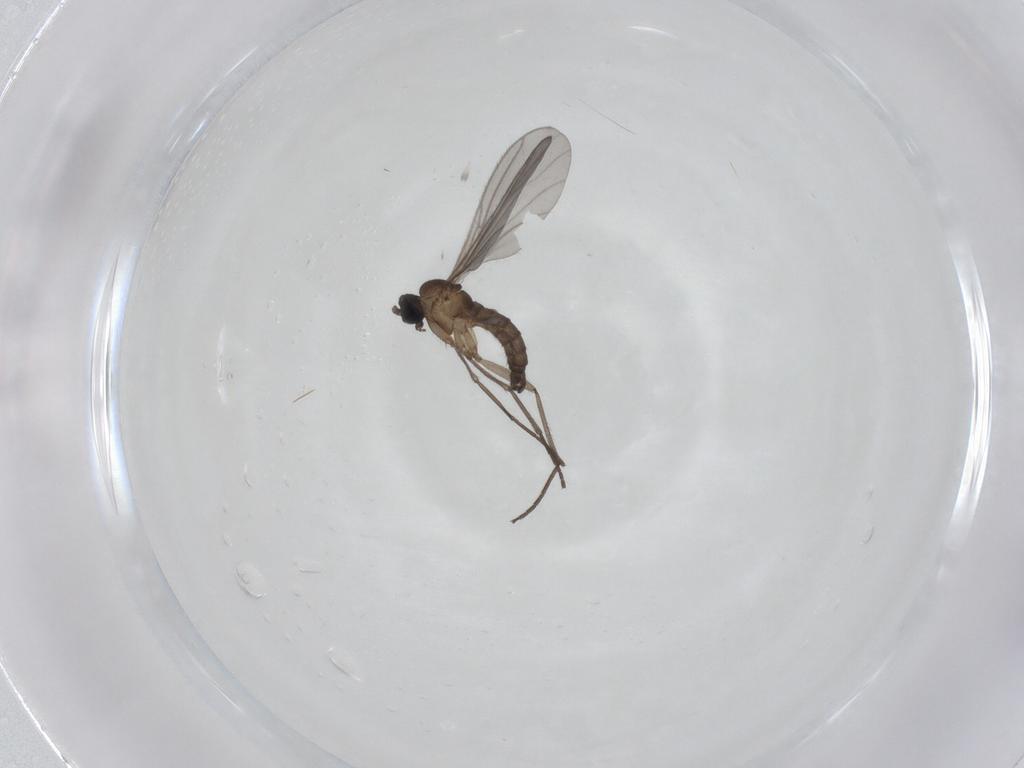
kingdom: Animalia
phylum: Arthropoda
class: Insecta
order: Diptera
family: Sciaridae
